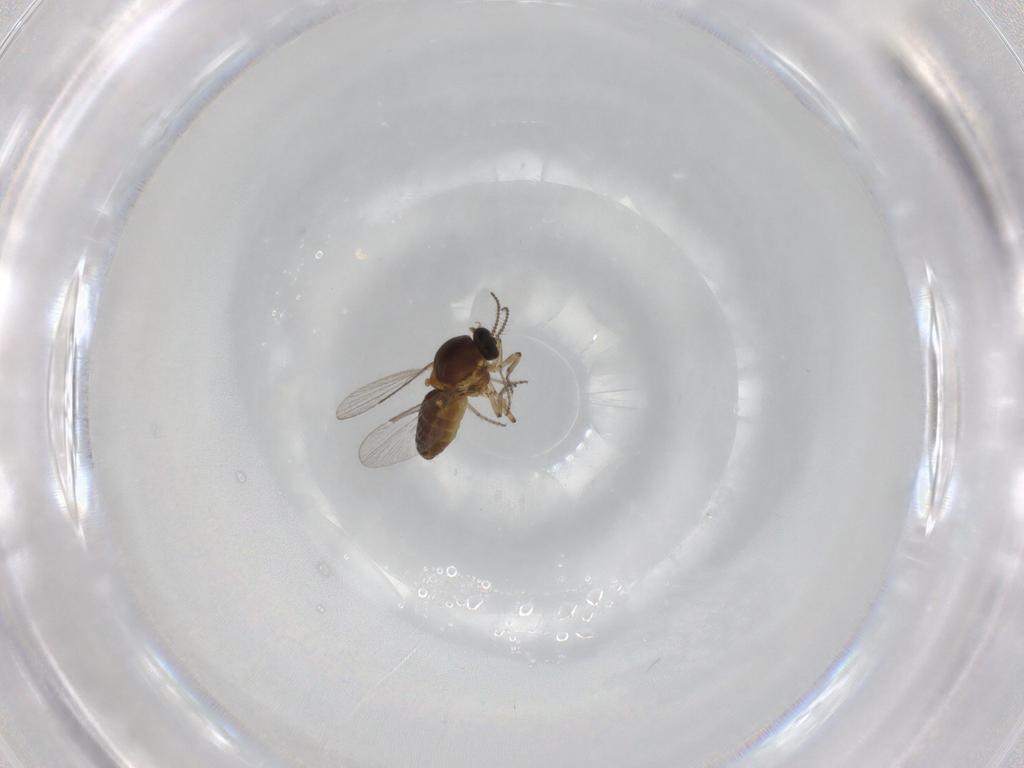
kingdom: Animalia
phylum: Arthropoda
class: Insecta
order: Diptera
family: Ceratopogonidae
